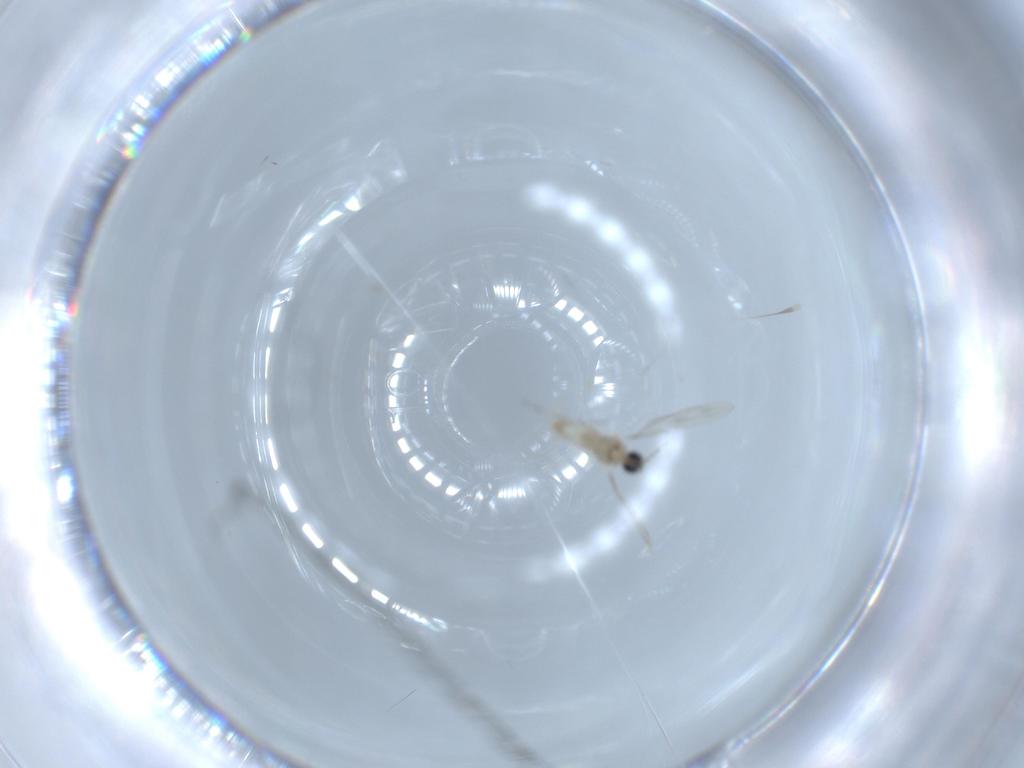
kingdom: Animalia
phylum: Arthropoda
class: Insecta
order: Diptera
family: Cecidomyiidae
